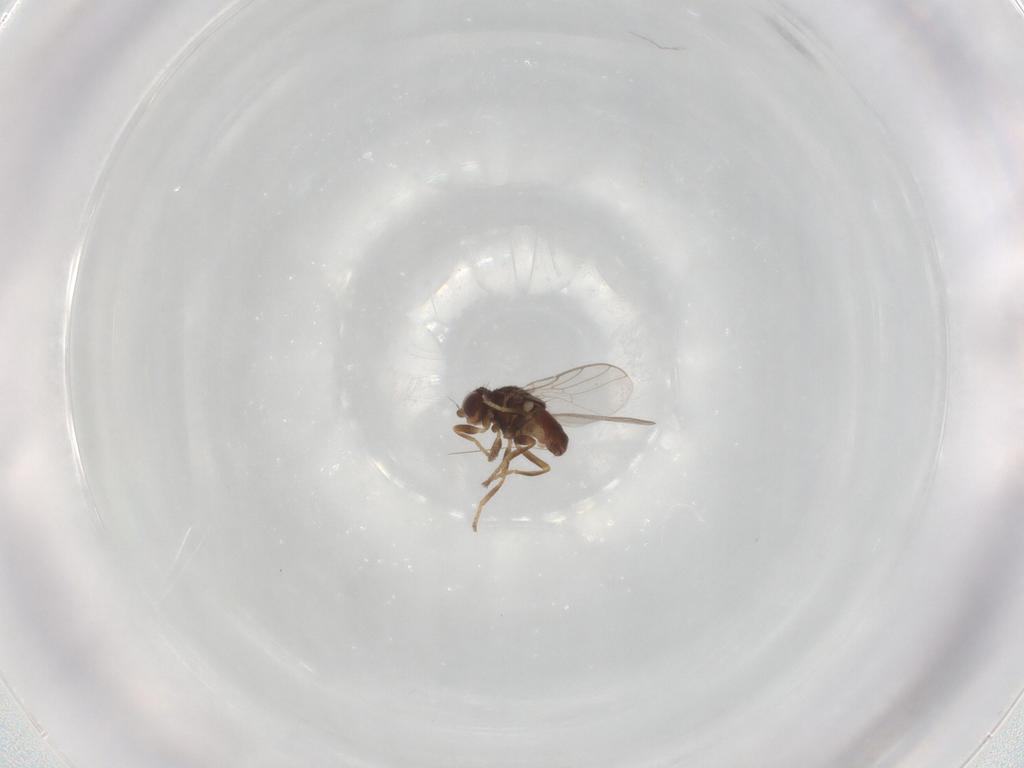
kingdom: Animalia
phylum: Arthropoda
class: Insecta
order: Diptera
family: Chloropidae
